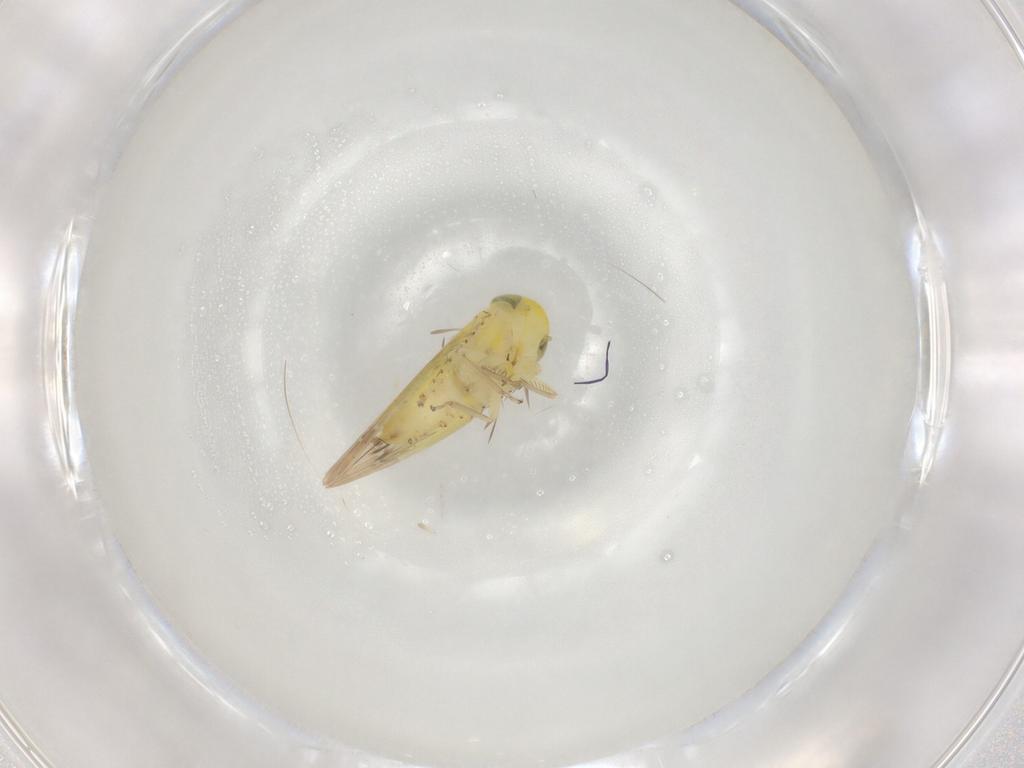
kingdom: Animalia
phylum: Arthropoda
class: Insecta
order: Hemiptera
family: Cicadellidae
